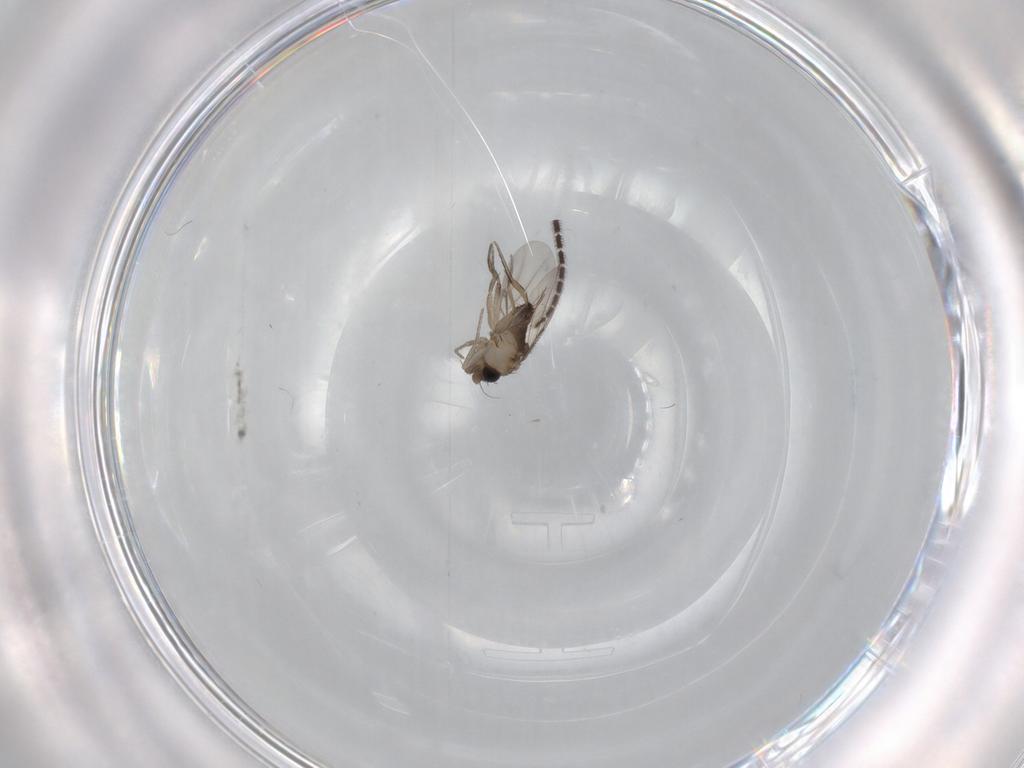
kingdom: Animalia
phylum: Arthropoda
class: Insecta
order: Diptera
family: Phoridae
